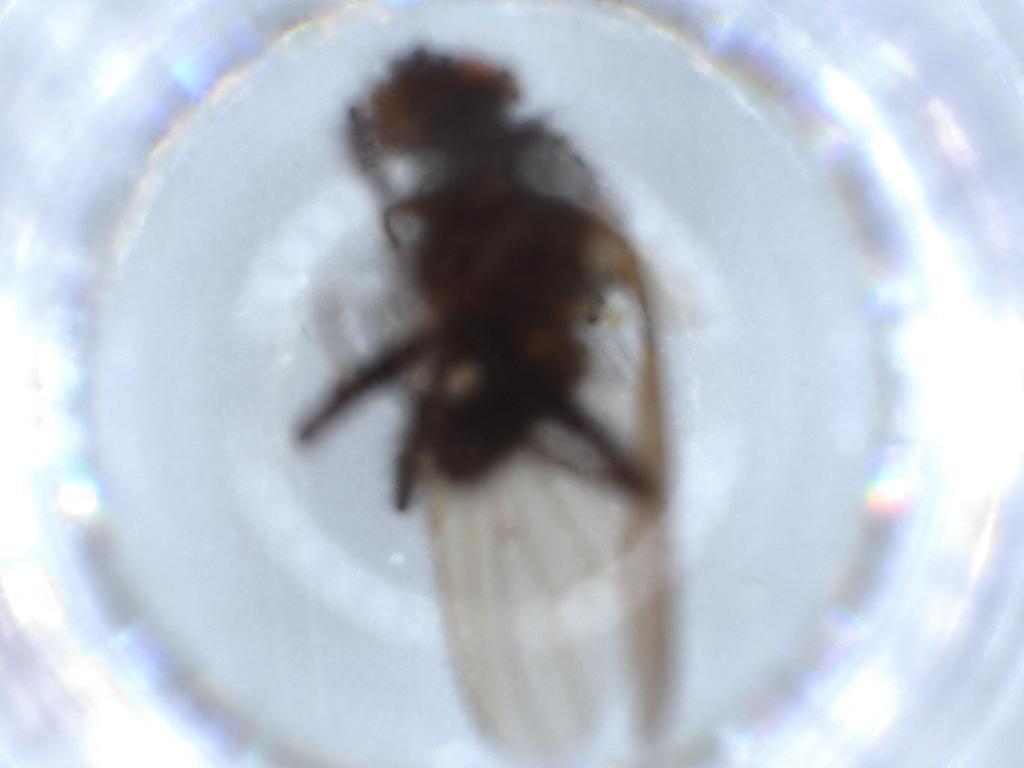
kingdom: Animalia
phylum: Arthropoda
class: Insecta
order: Diptera
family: Anthomyiidae
